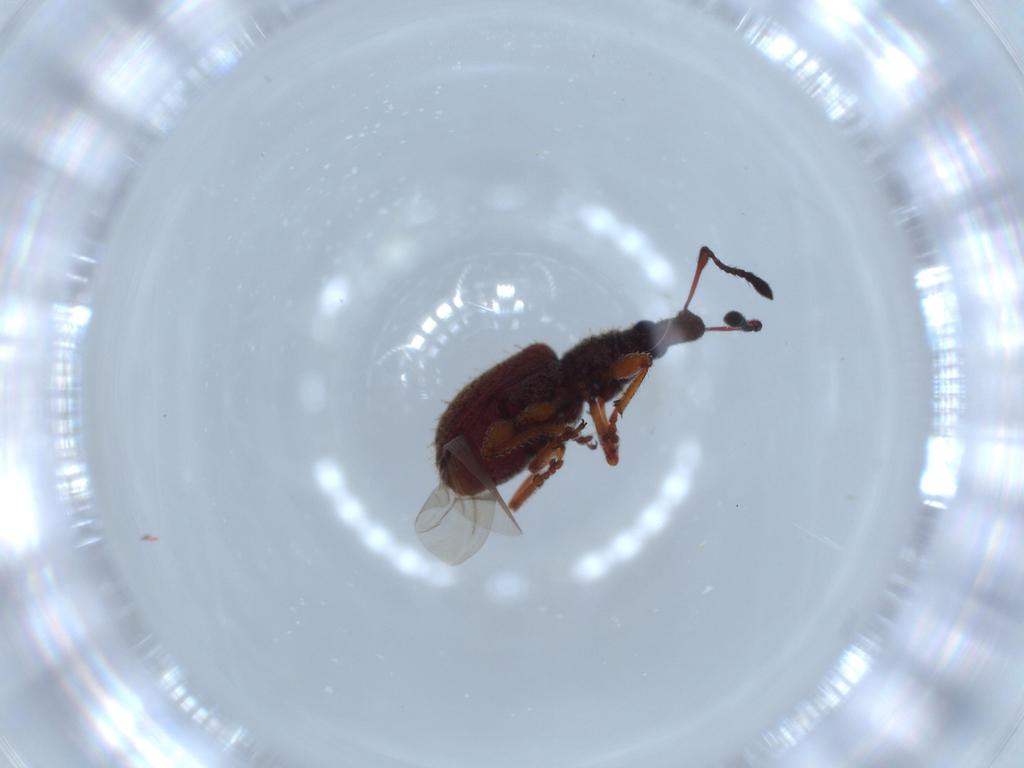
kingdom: Animalia
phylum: Arthropoda
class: Insecta
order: Coleoptera
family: Curculionidae
